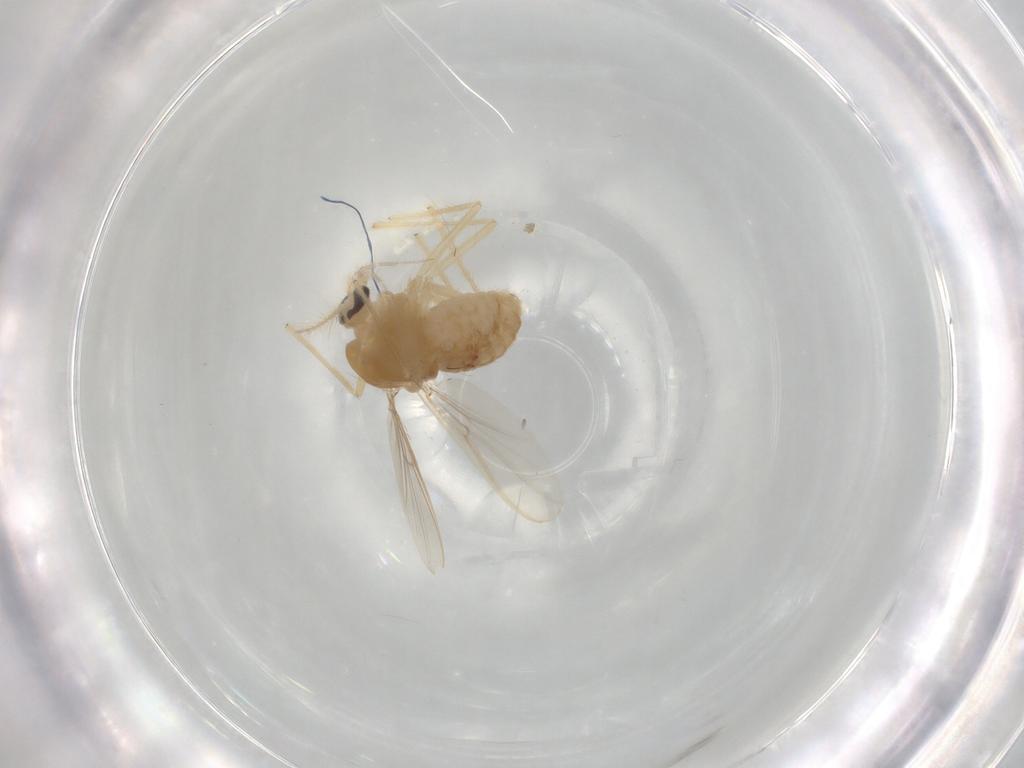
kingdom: Animalia
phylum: Arthropoda
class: Insecta
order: Diptera
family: Chironomidae
